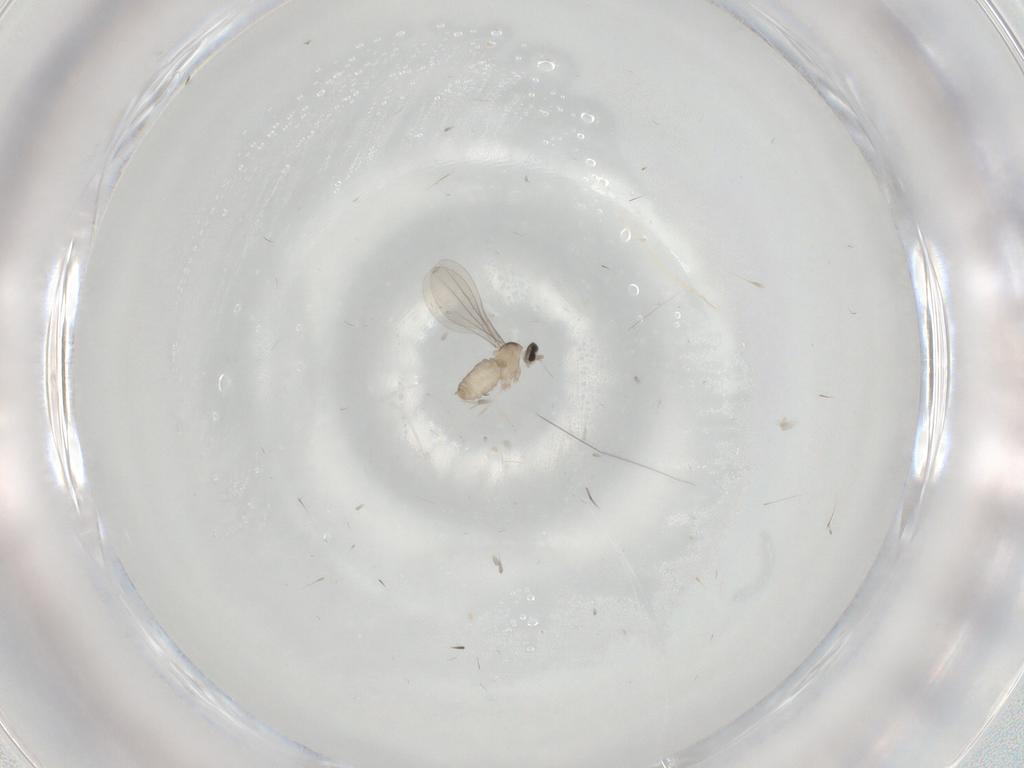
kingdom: Animalia
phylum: Arthropoda
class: Insecta
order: Diptera
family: Cecidomyiidae
